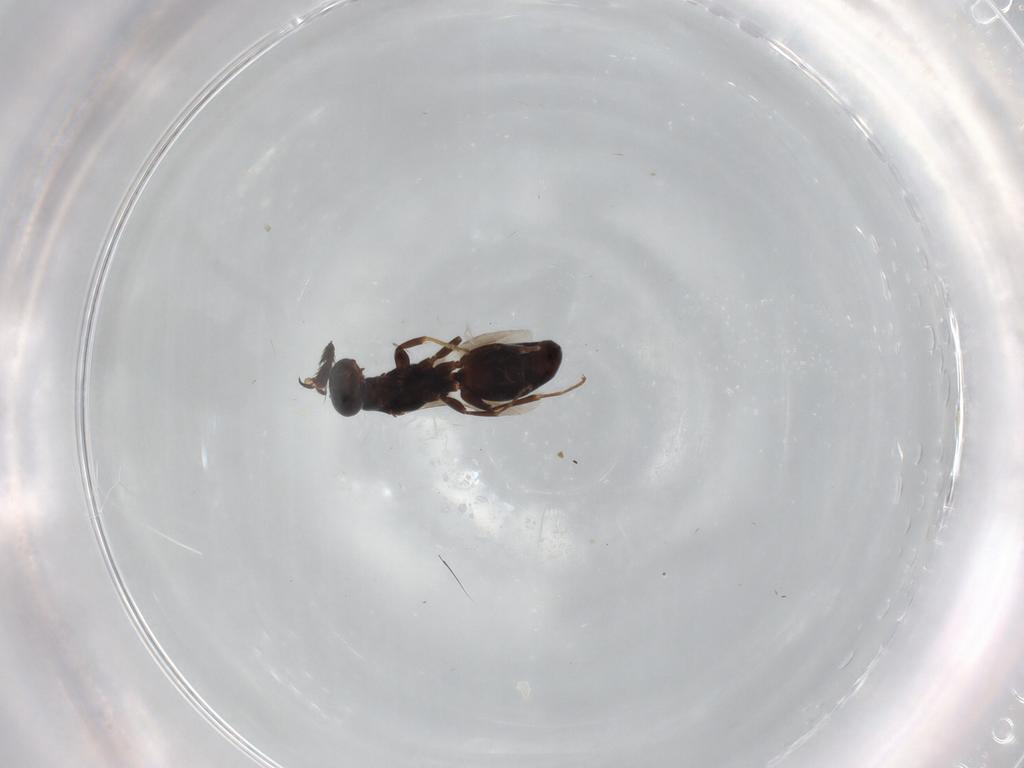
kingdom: Animalia
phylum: Arthropoda
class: Insecta
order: Hymenoptera
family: Bethylidae
